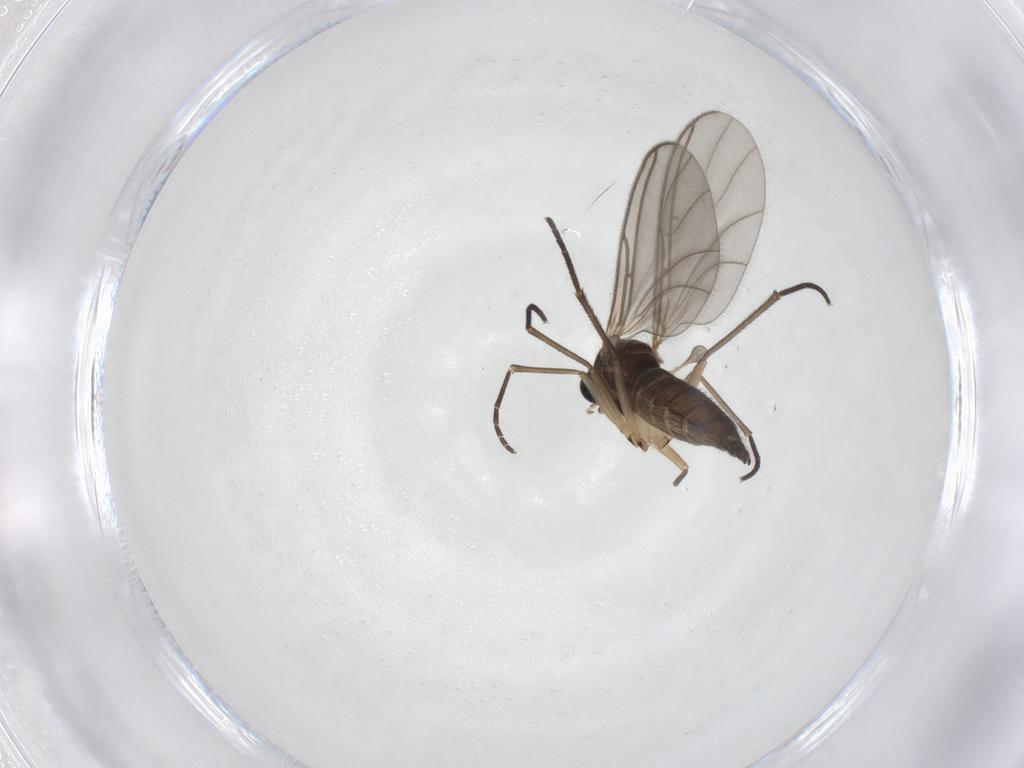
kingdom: Animalia
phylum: Arthropoda
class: Insecta
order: Diptera
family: Sciaridae
